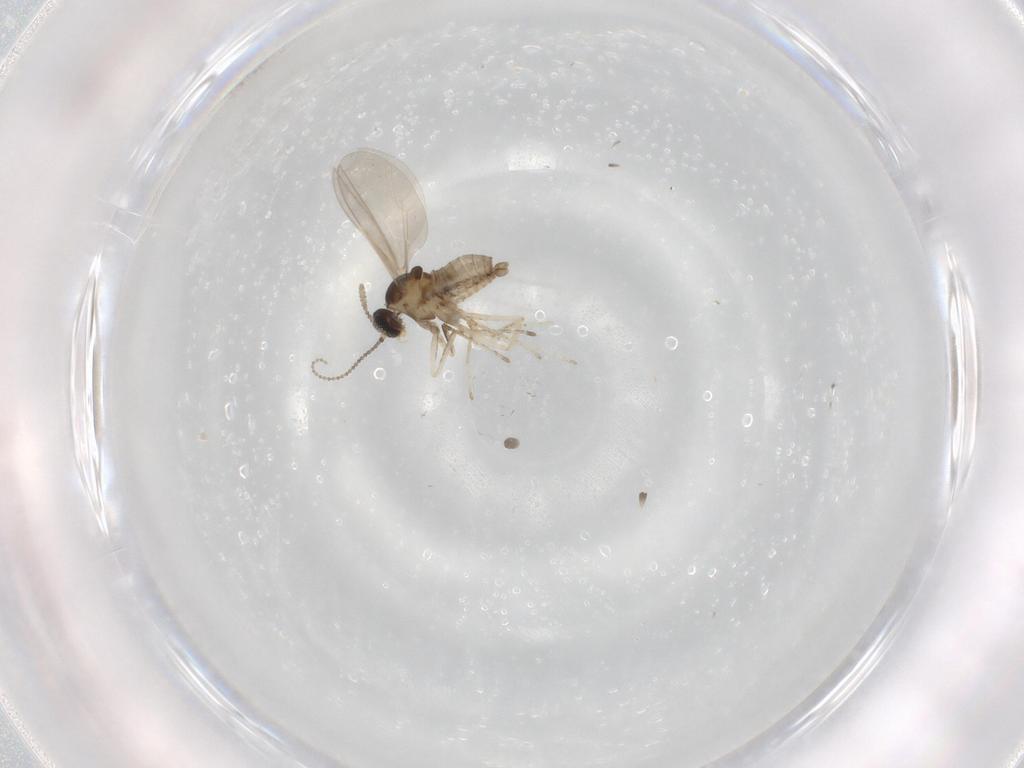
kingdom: Animalia
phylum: Arthropoda
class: Insecta
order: Diptera
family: Cecidomyiidae
